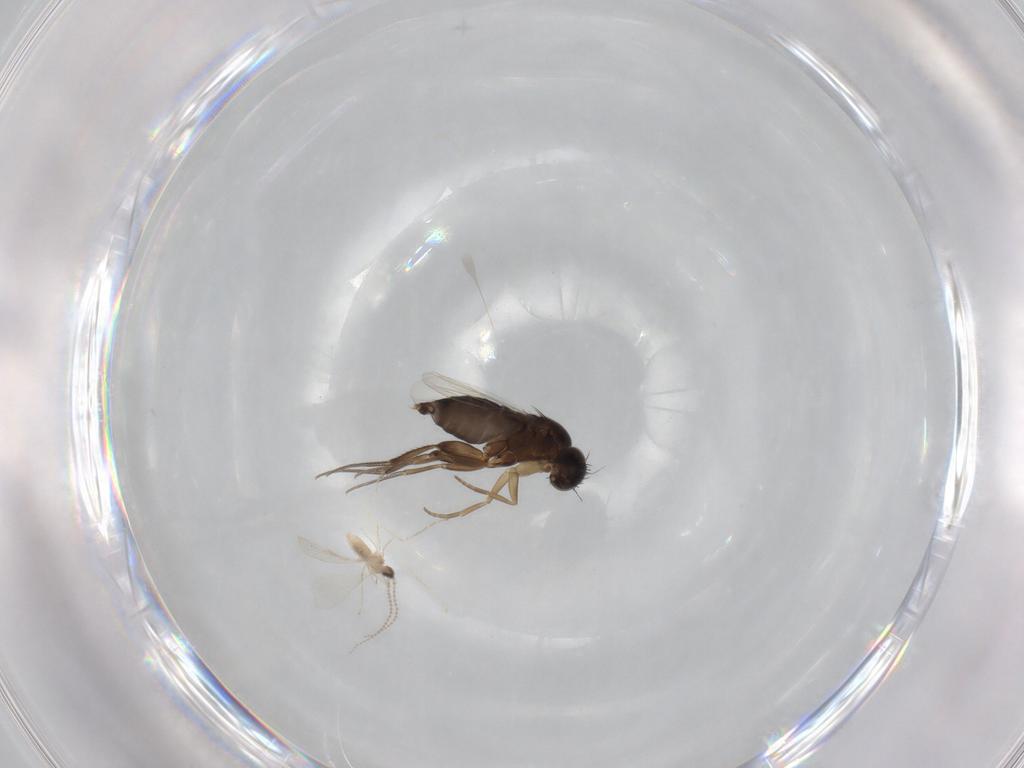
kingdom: Animalia
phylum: Arthropoda
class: Insecta
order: Diptera
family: Phoridae
